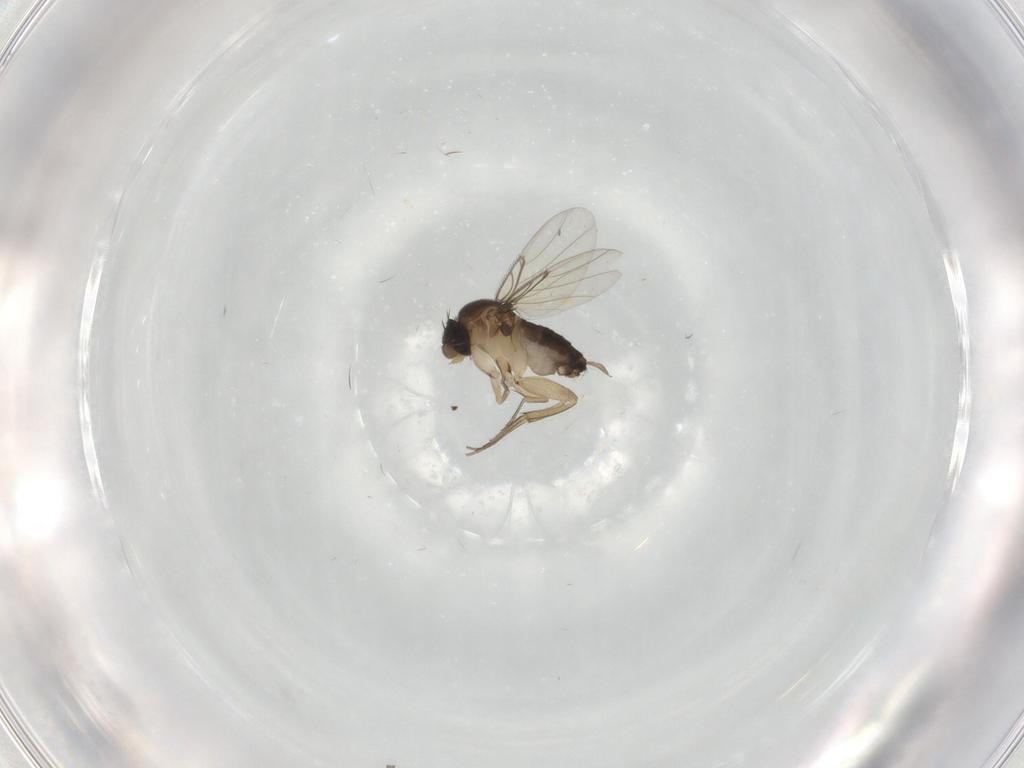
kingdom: Animalia
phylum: Arthropoda
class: Insecta
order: Diptera
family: Phoridae
